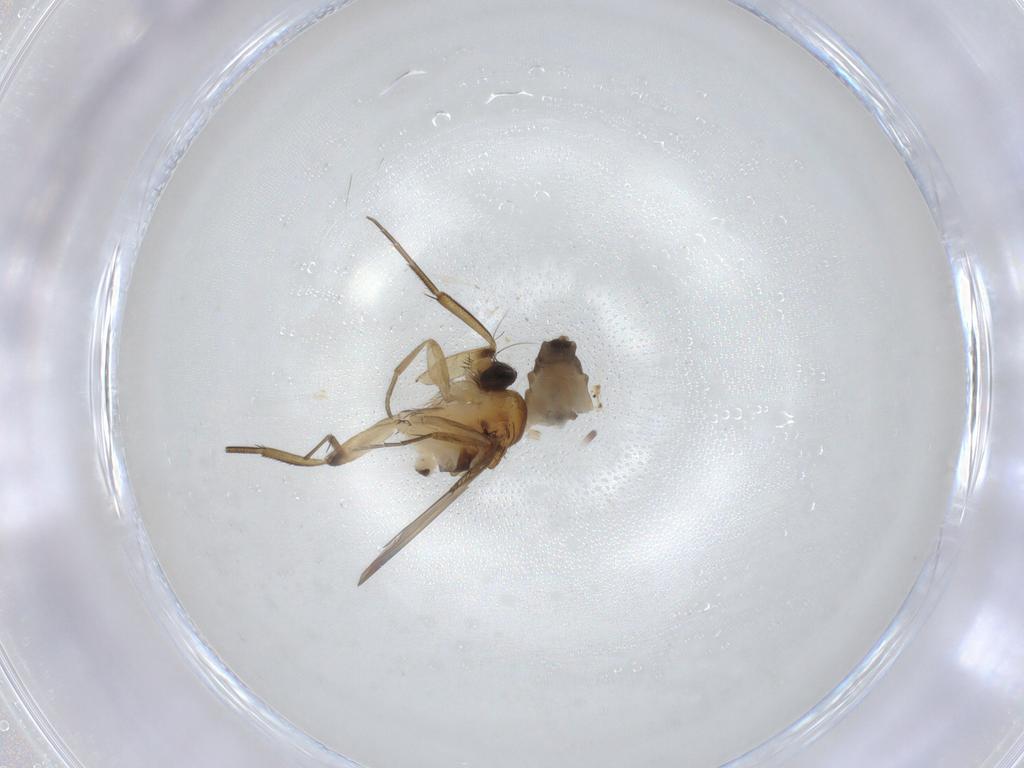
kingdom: Animalia
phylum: Arthropoda
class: Insecta
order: Diptera
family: Phoridae
